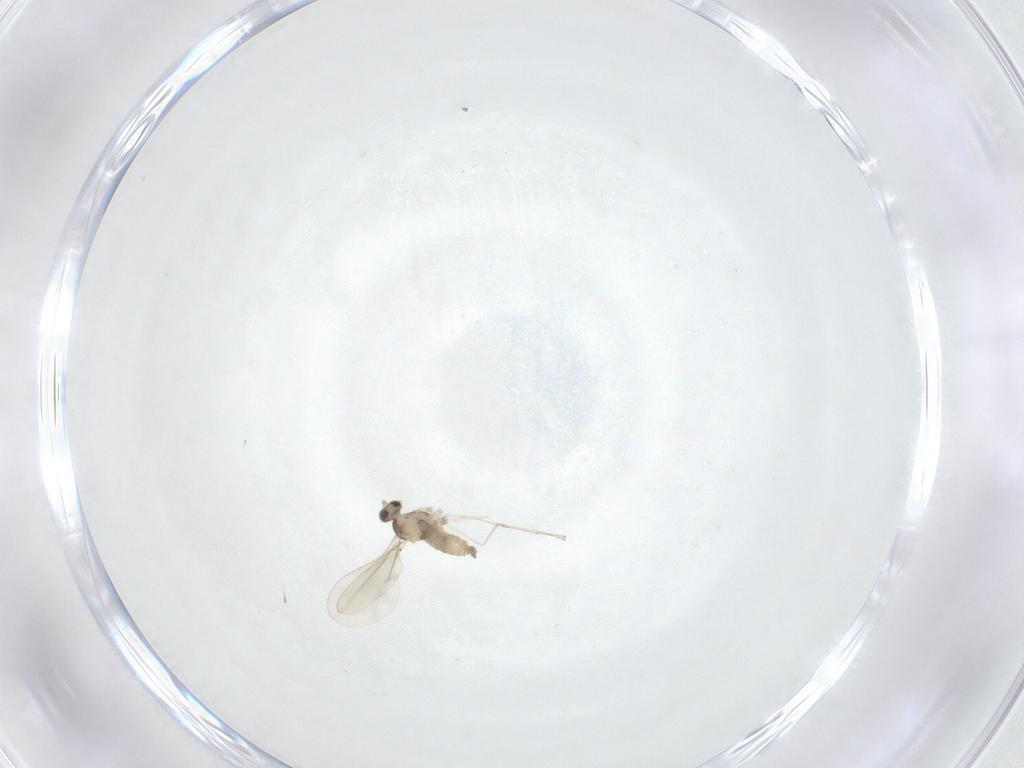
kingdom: Animalia
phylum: Arthropoda
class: Insecta
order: Diptera
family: Cecidomyiidae
